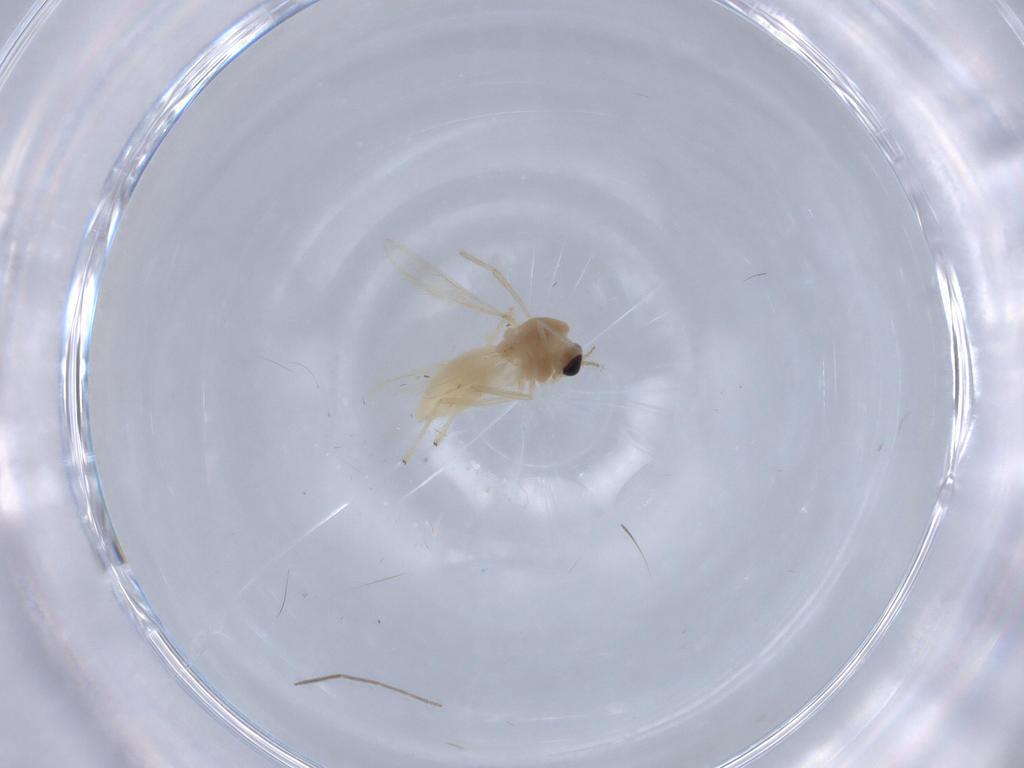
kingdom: Animalia
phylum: Arthropoda
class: Insecta
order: Diptera
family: Chironomidae
